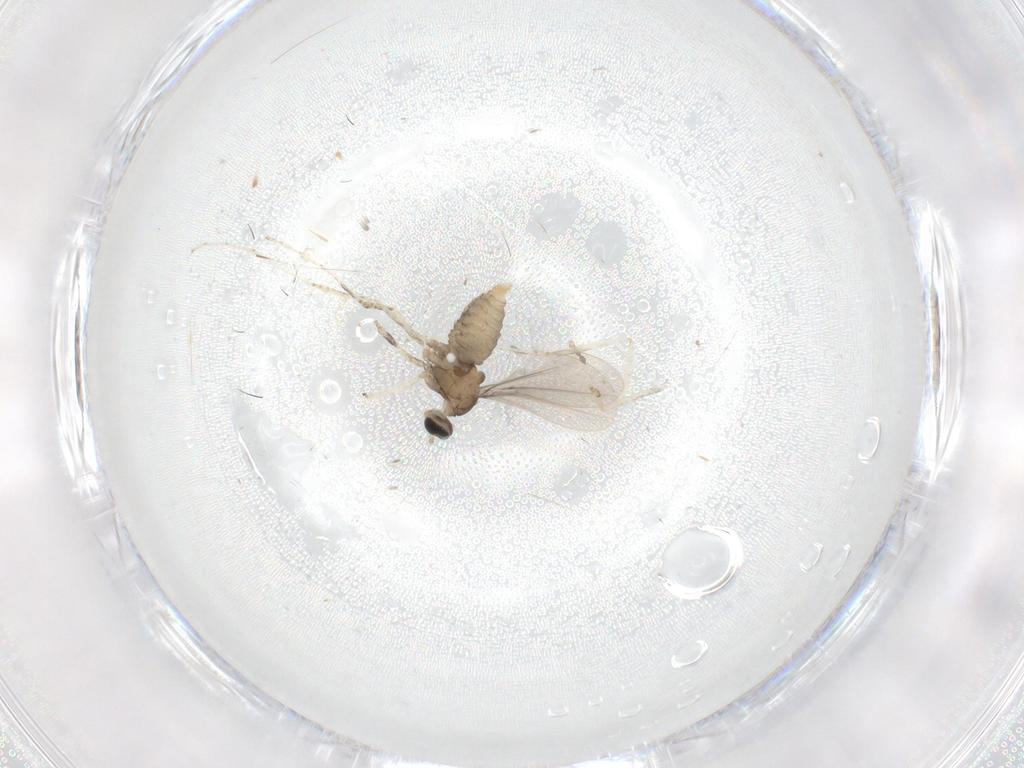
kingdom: Animalia
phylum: Arthropoda
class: Insecta
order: Diptera
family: Cecidomyiidae
